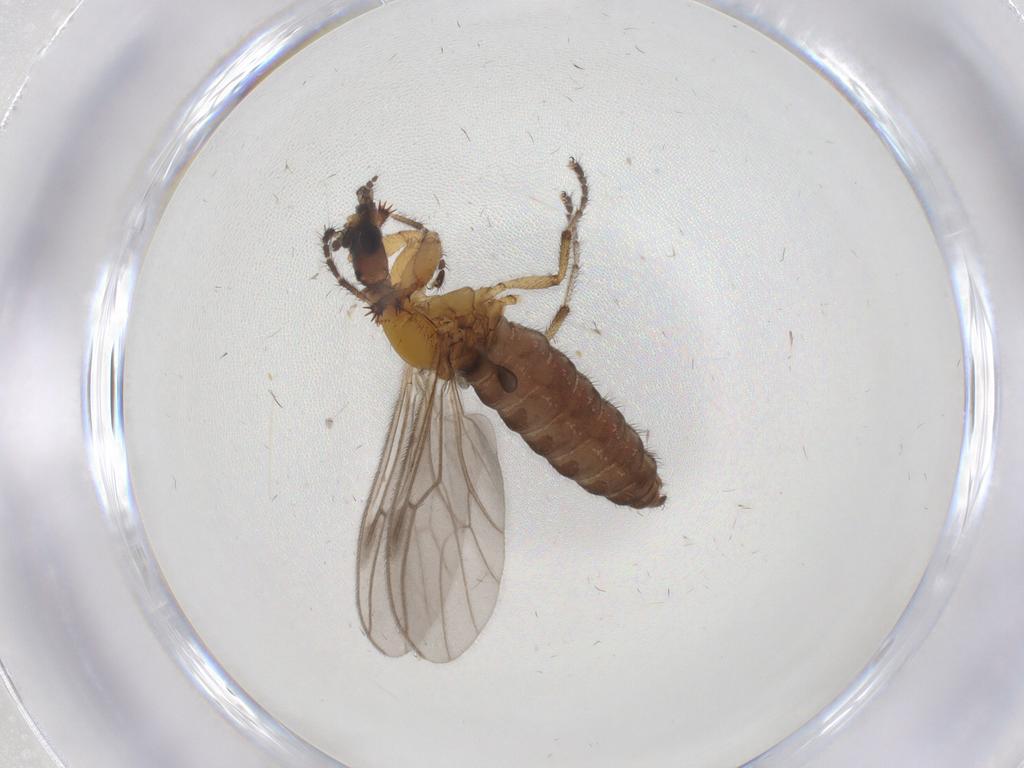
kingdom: Animalia
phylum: Arthropoda
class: Insecta
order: Diptera
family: Bibionidae
